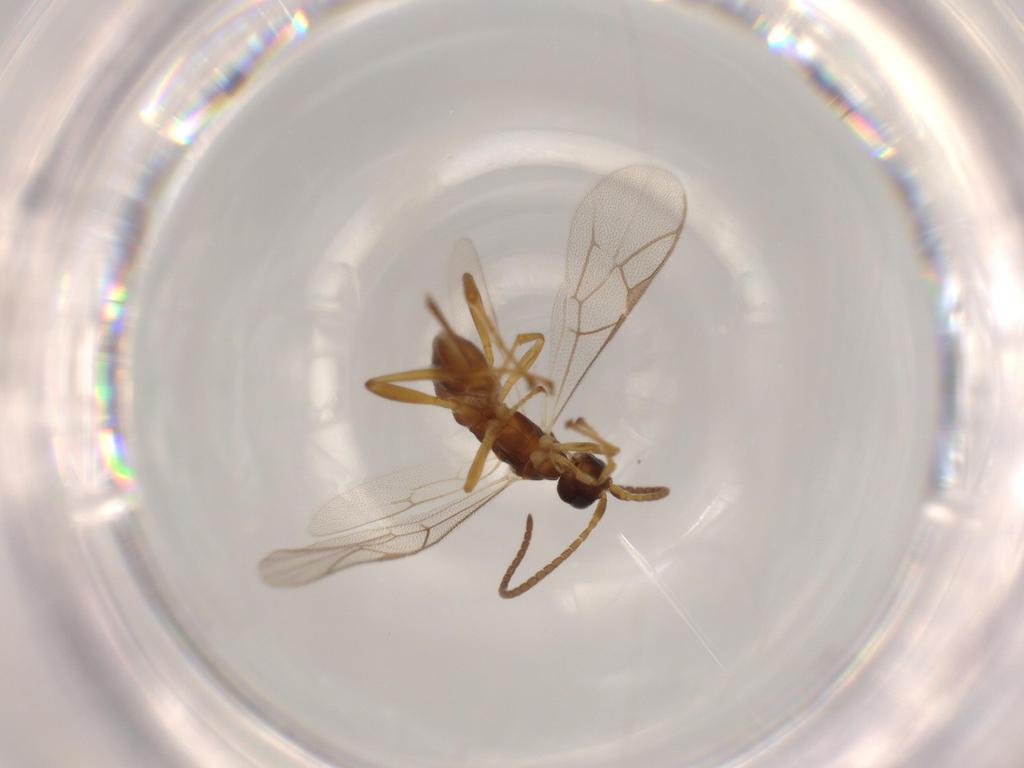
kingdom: Animalia
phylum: Arthropoda
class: Insecta
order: Hymenoptera
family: Ichneumonidae
